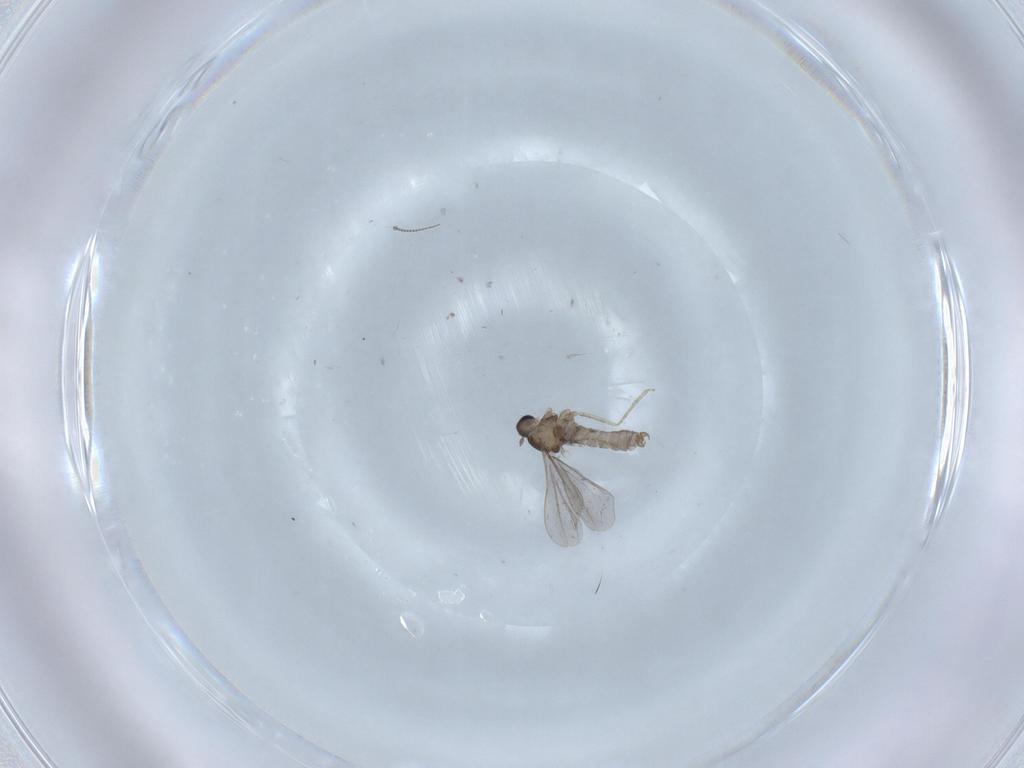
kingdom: Animalia
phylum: Arthropoda
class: Insecta
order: Diptera
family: Chironomidae
